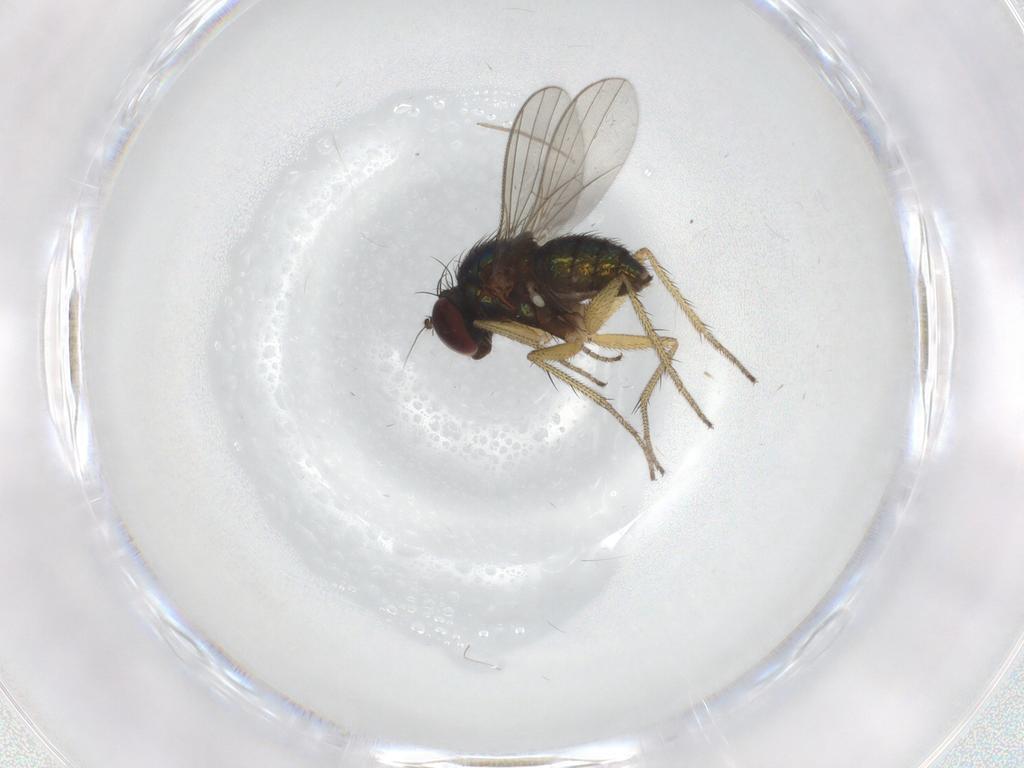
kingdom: Animalia
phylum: Arthropoda
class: Insecta
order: Diptera
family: Chironomidae
